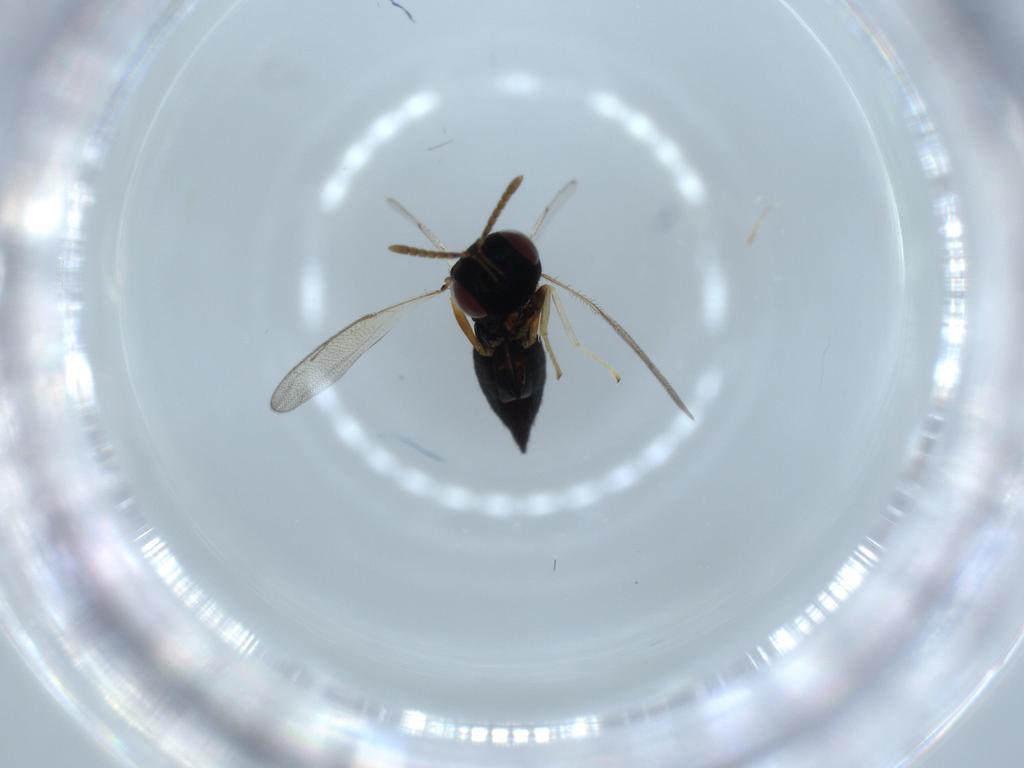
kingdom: Animalia
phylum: Arthropoda
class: Insecta
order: Hymenoptera
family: Pteromalidae
